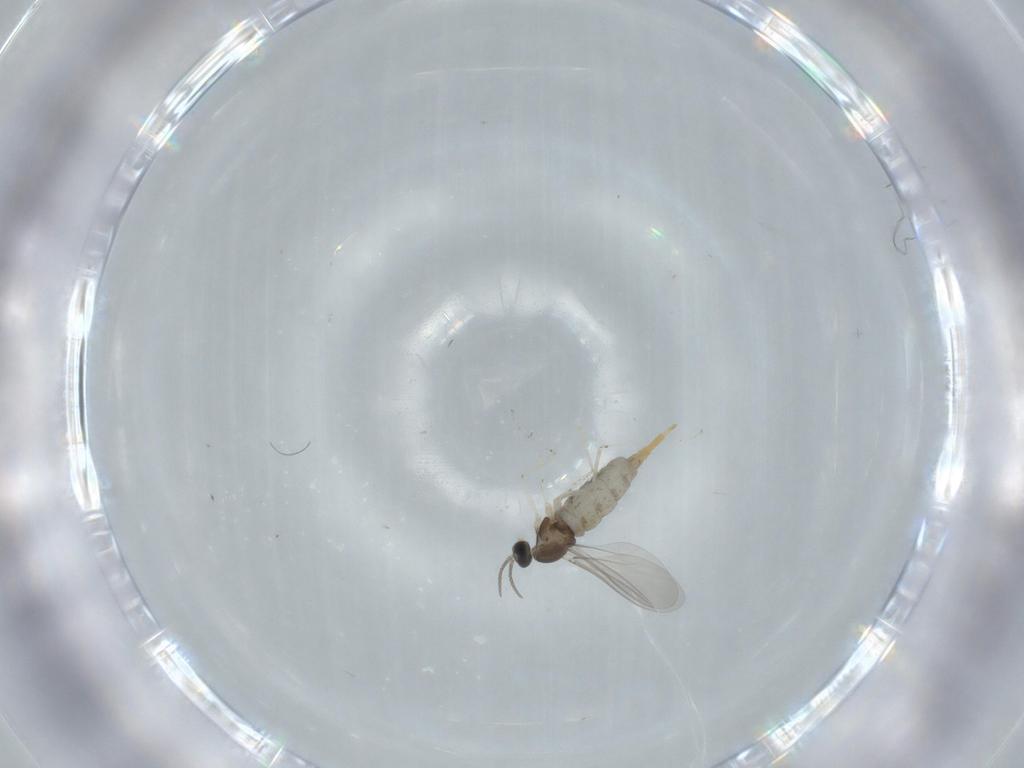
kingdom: Animalia
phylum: Arthropoda
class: Insecta
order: Diptera
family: Cecidomyiidae
